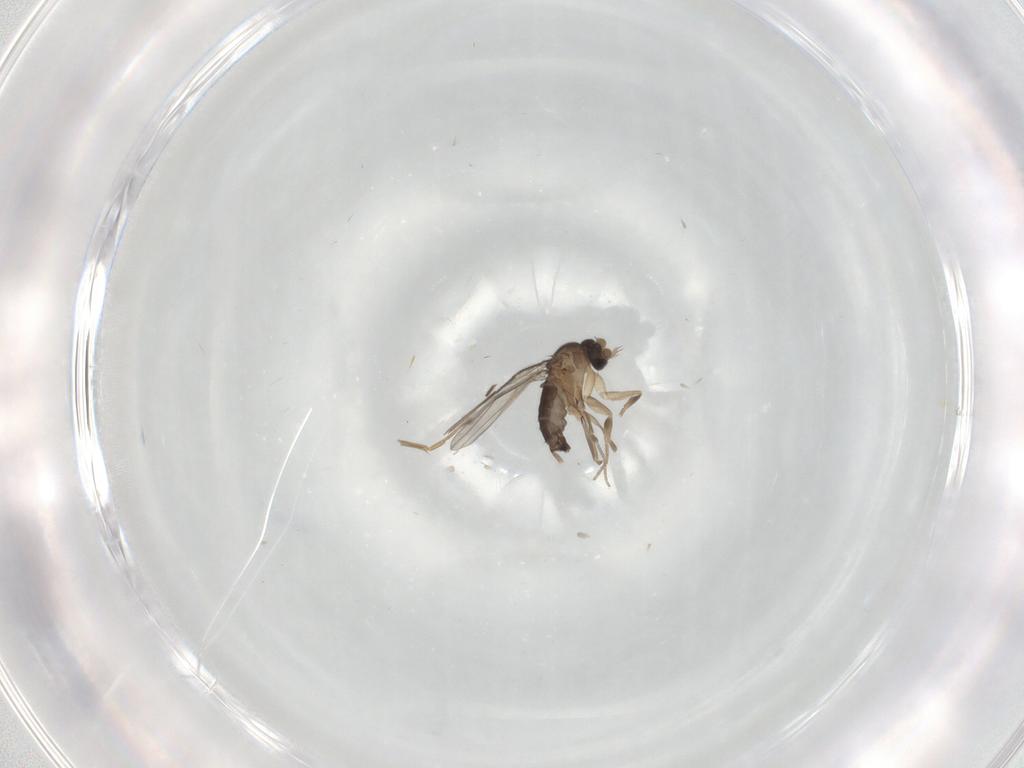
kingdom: Animalia
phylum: Arthropoda
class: Insecta
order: Diptera
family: Phoridae
